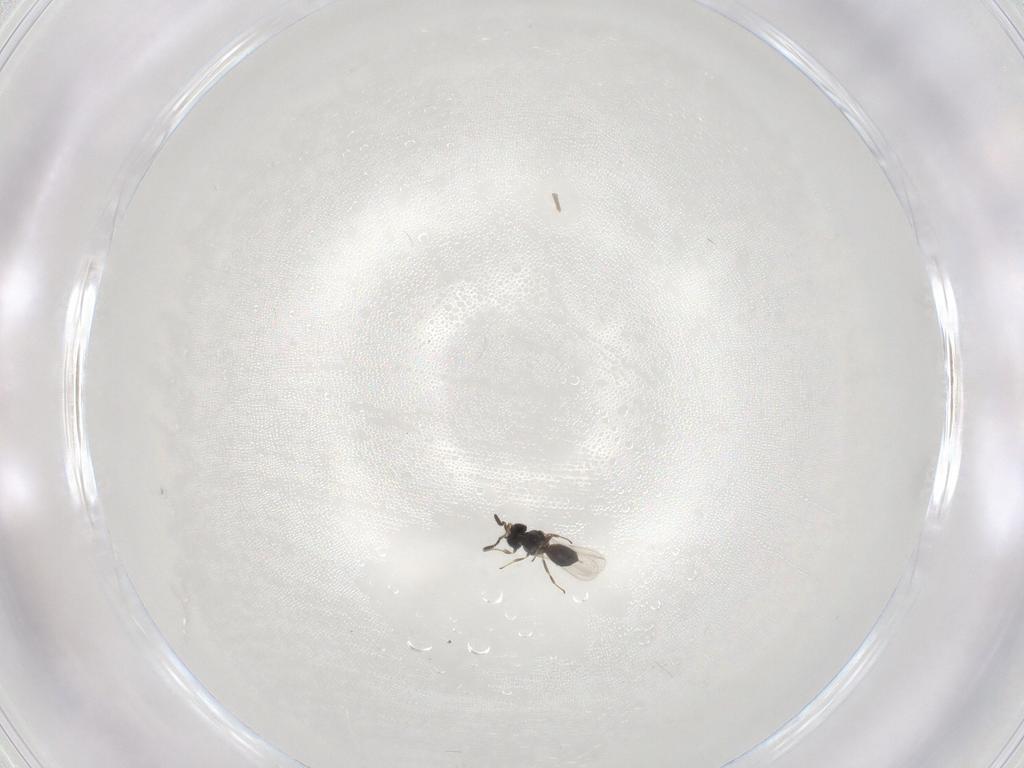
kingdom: Animalia
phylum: Arthropoda
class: Insecta
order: Hymenoptera
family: Scelionidae
